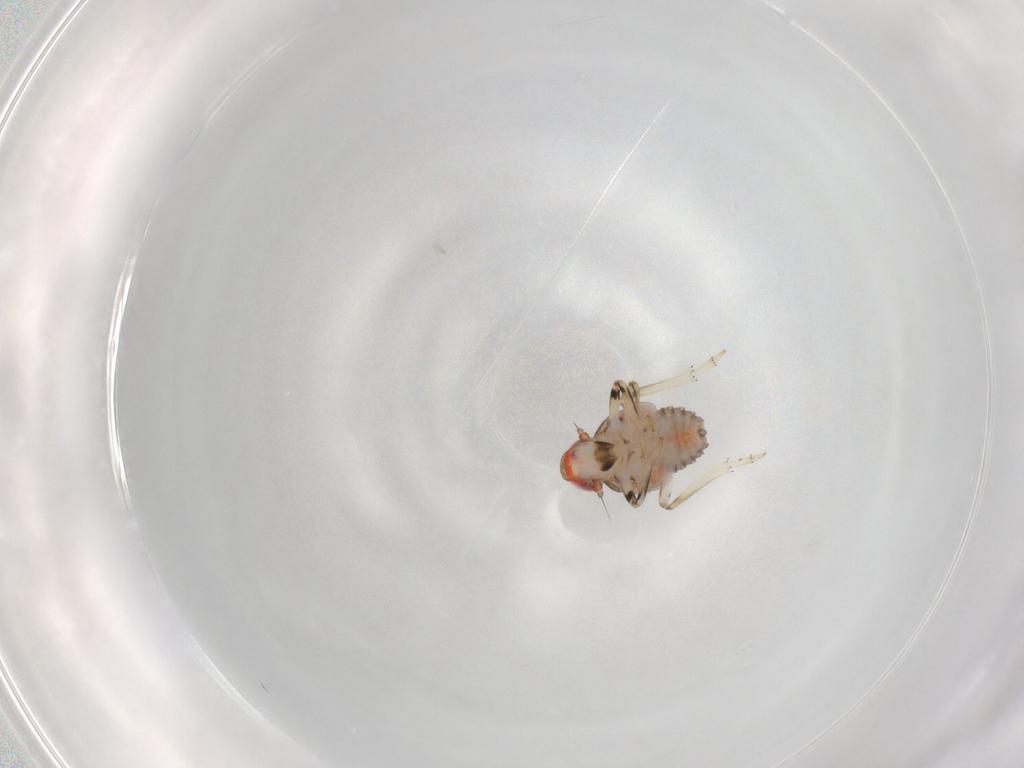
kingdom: Animalia
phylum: Arthropoda
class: Insecta
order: Hemiptera
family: Issidae
